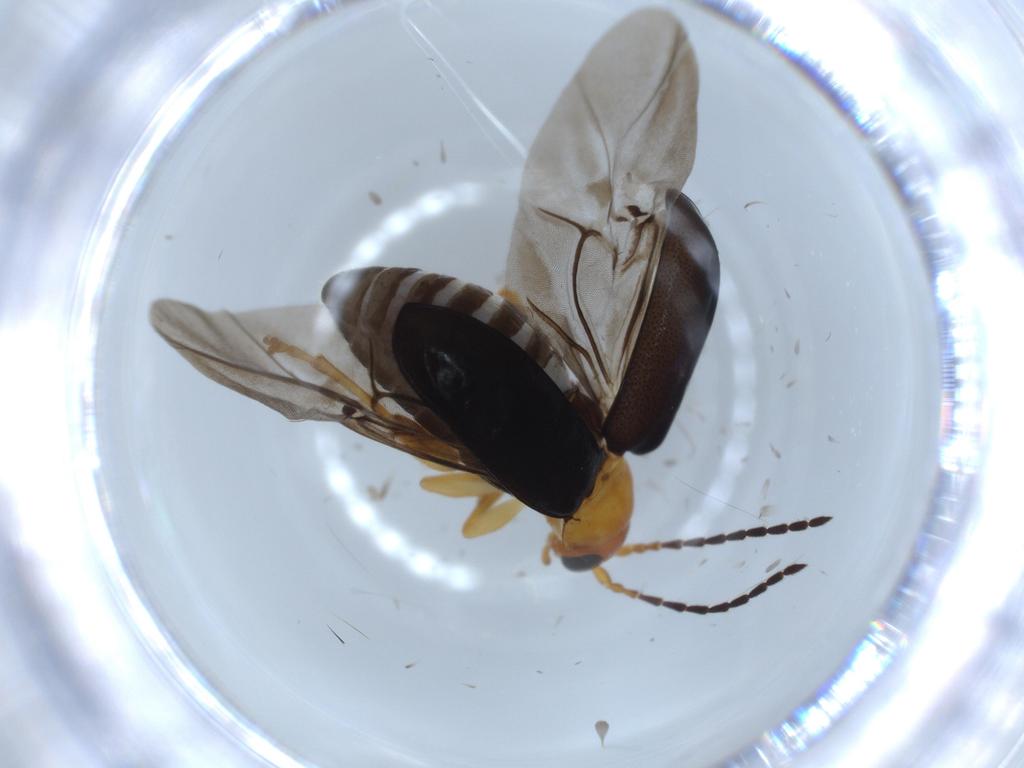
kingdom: Animalia
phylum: Arthropoda
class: Insecta
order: Coleoptera
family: Chrysomelidae
